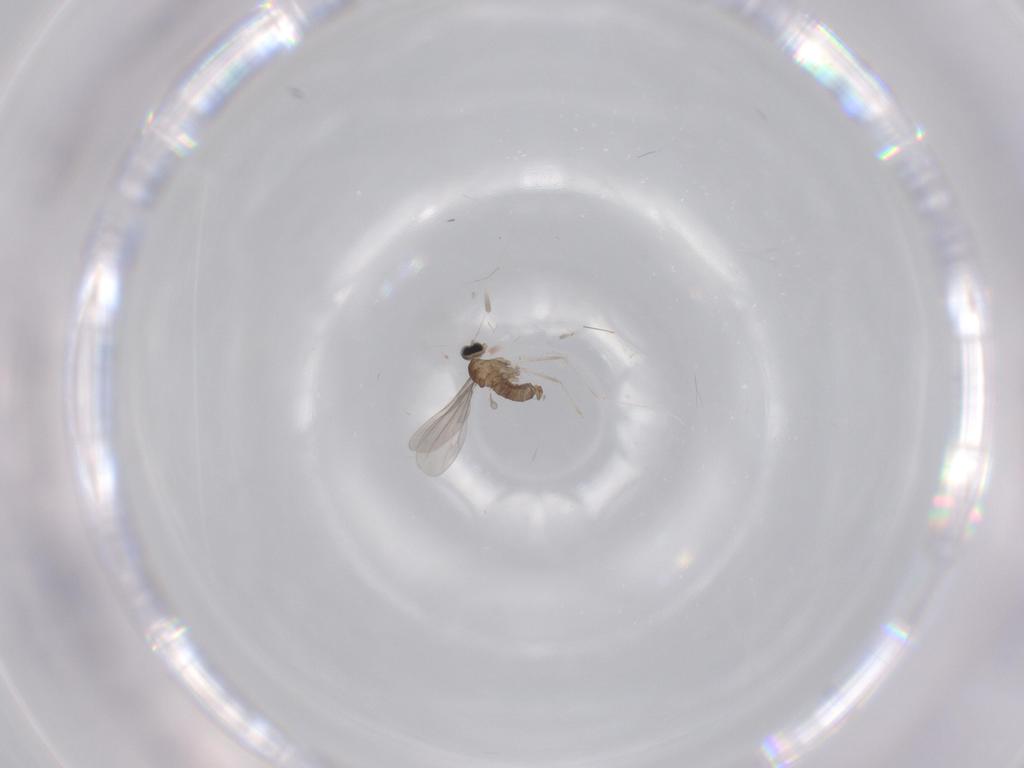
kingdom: Animalia
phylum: Arthropoda
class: Insecta
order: Diptera
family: Cecidomyiidae
